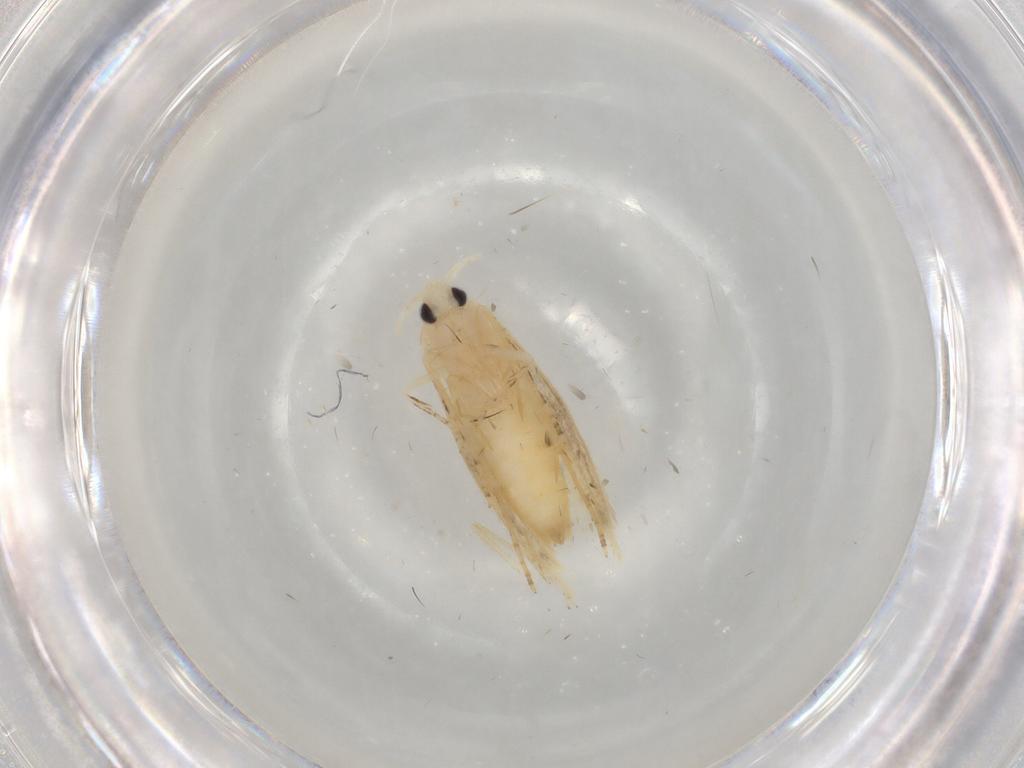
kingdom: Animalia
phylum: Arthropoda
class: Insecta
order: Lepidoptera
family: Bucculatricidae
